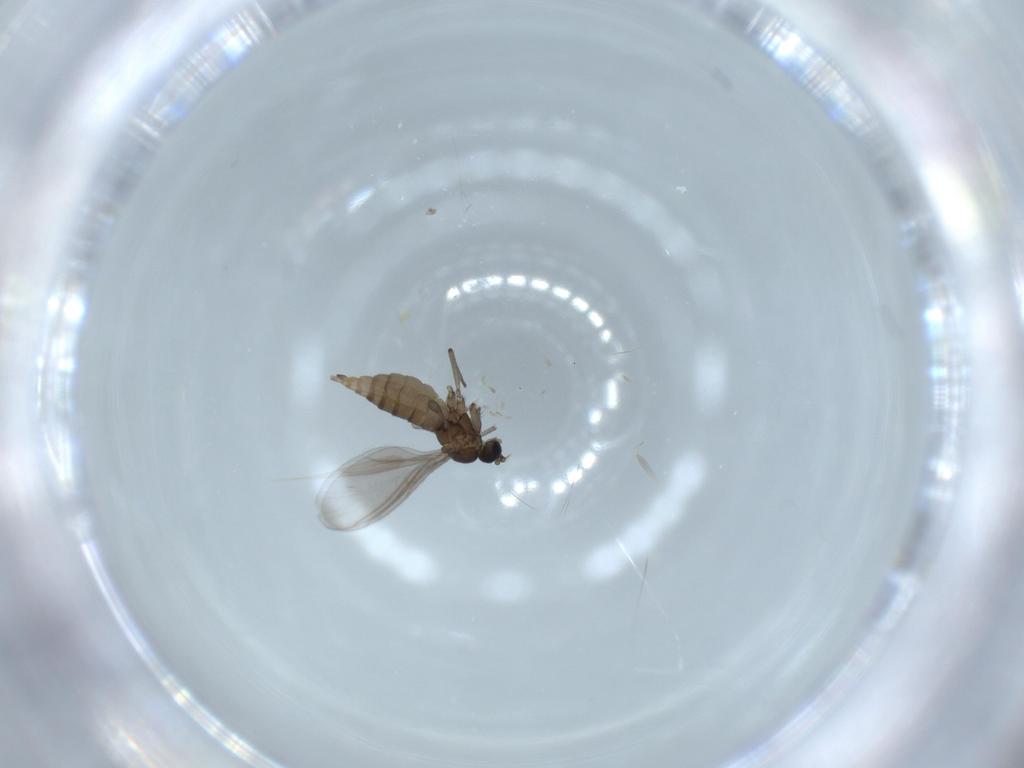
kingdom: Animalia
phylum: Arthropoda
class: Insecta
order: Diptera
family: Sciaridae
